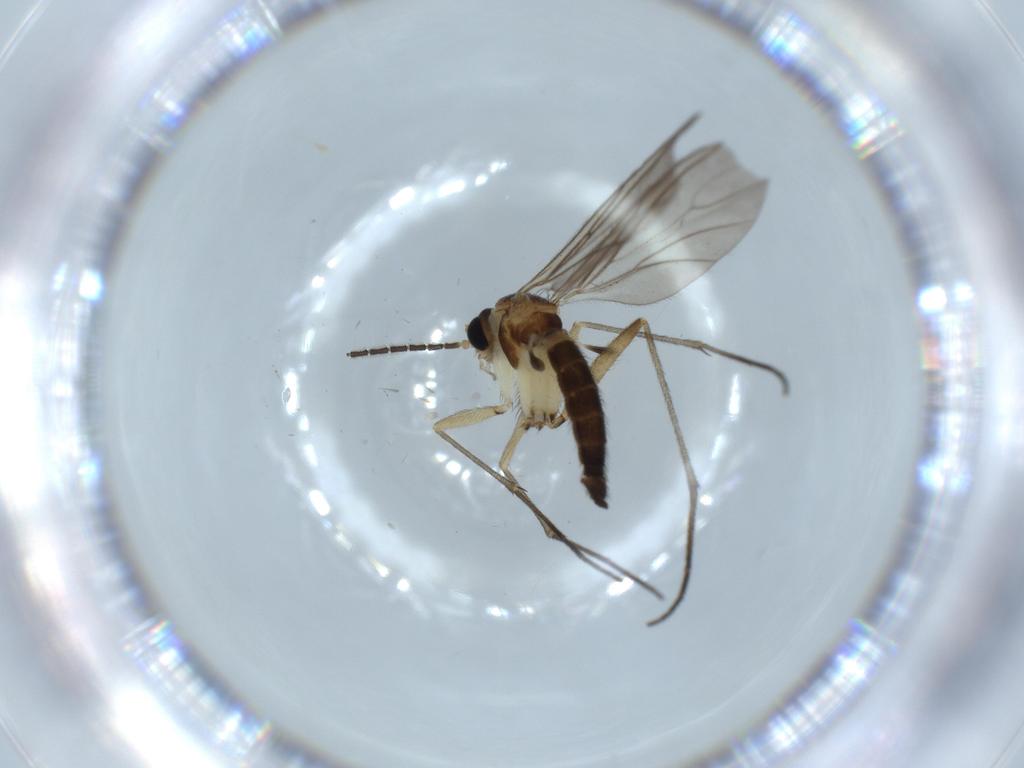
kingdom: Animalia
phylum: Arthropoda
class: Insecta
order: Diptera
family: Sciaridae
